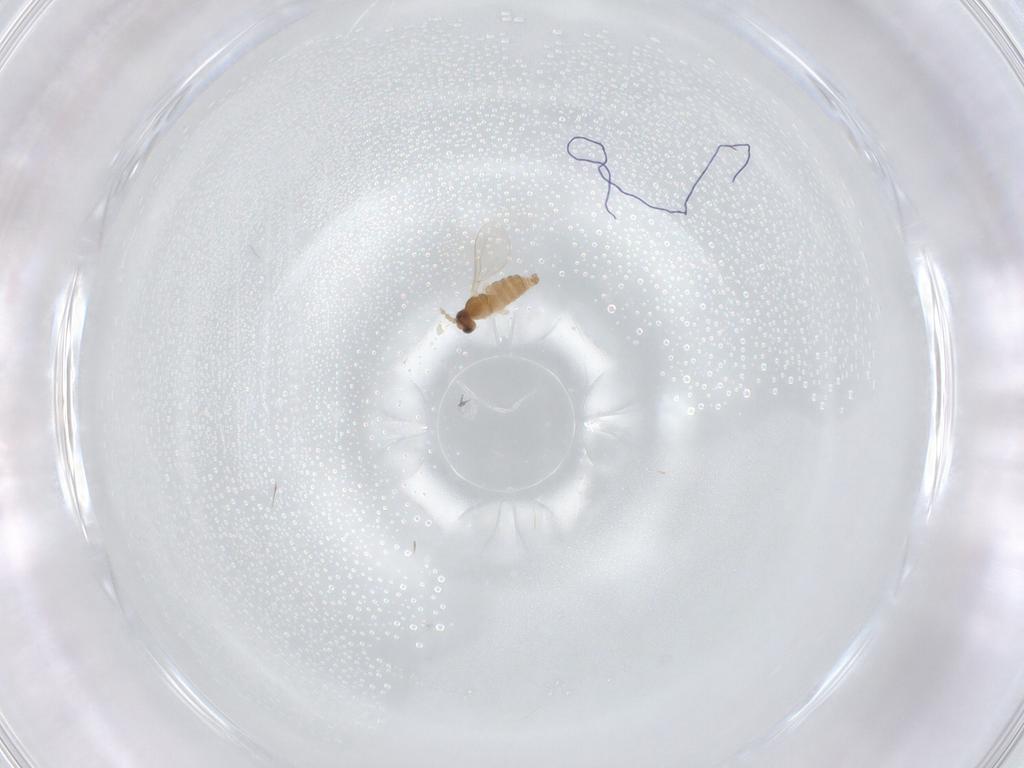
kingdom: Animalia
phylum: Arthropoda
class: Insecta
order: Diptera
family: Cecidomyiidae
